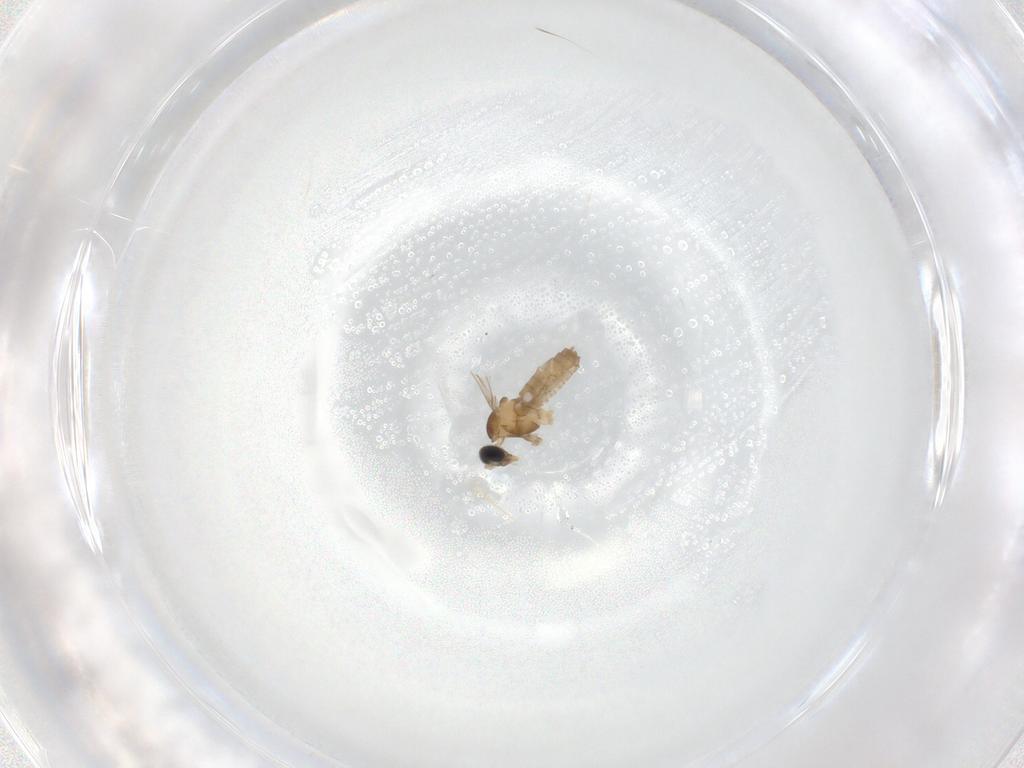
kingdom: Animalia
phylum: Arthropoda
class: Insecta
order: Diptera
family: Cecidomyiidae
